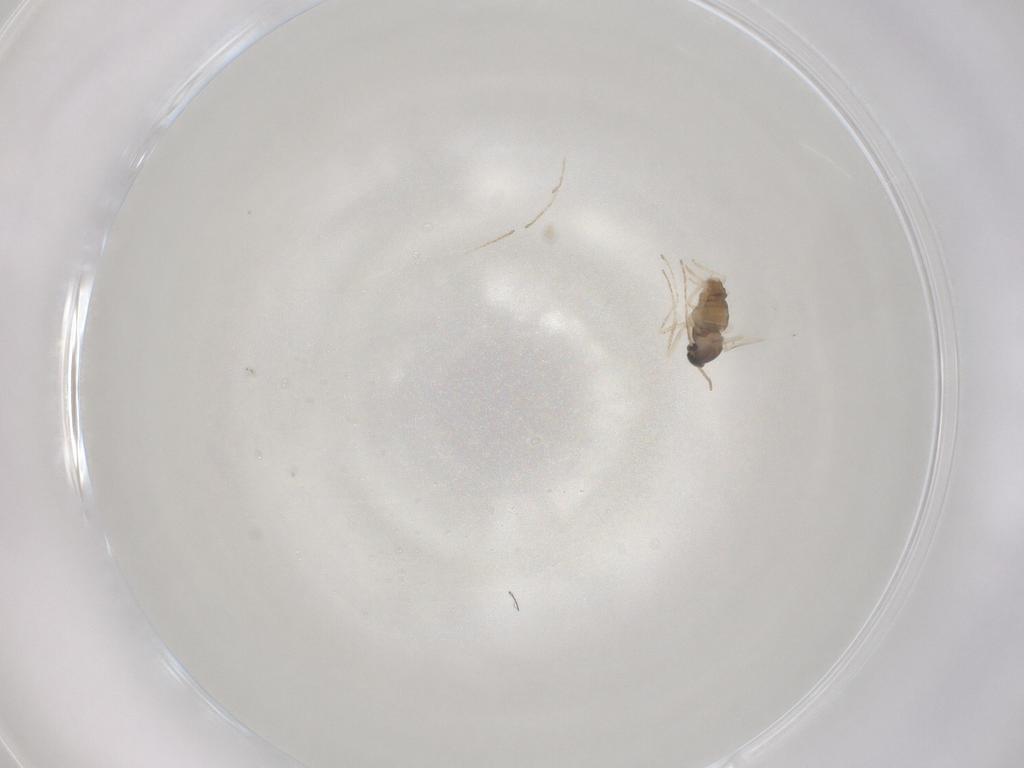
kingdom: Animalia
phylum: Arthropoda
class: Insecta
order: Diptera
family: Cecidomyiidae
